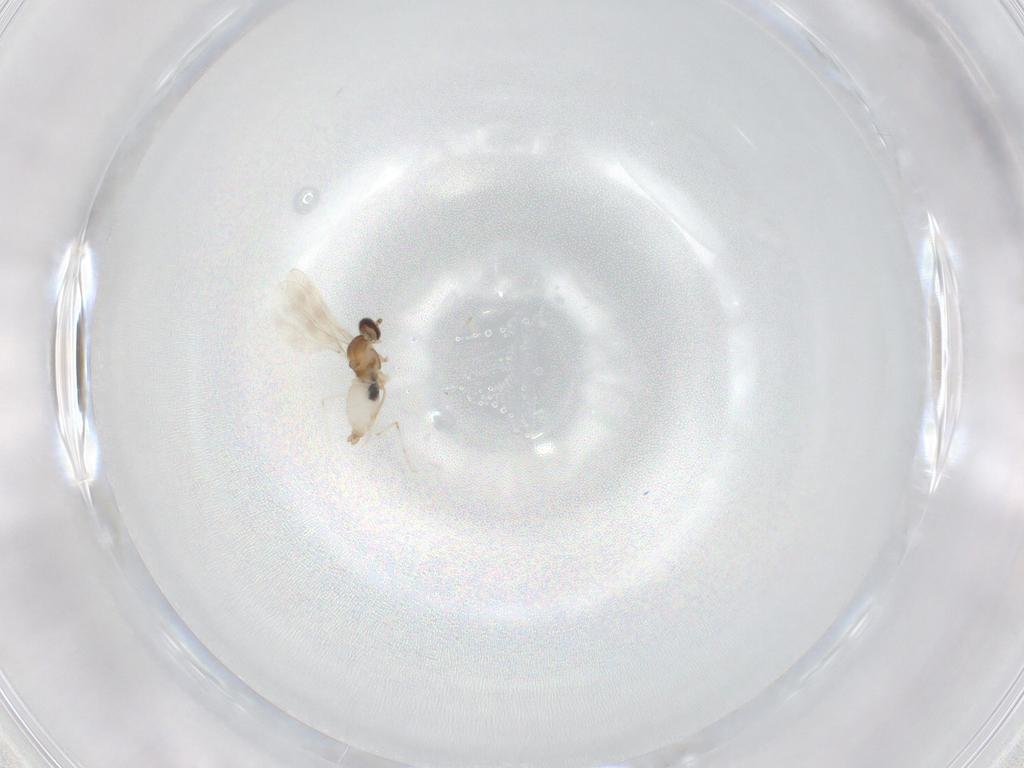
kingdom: Animalia
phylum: Arthropoda
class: Insecta
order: Diptera
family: Cecidomyiidae
